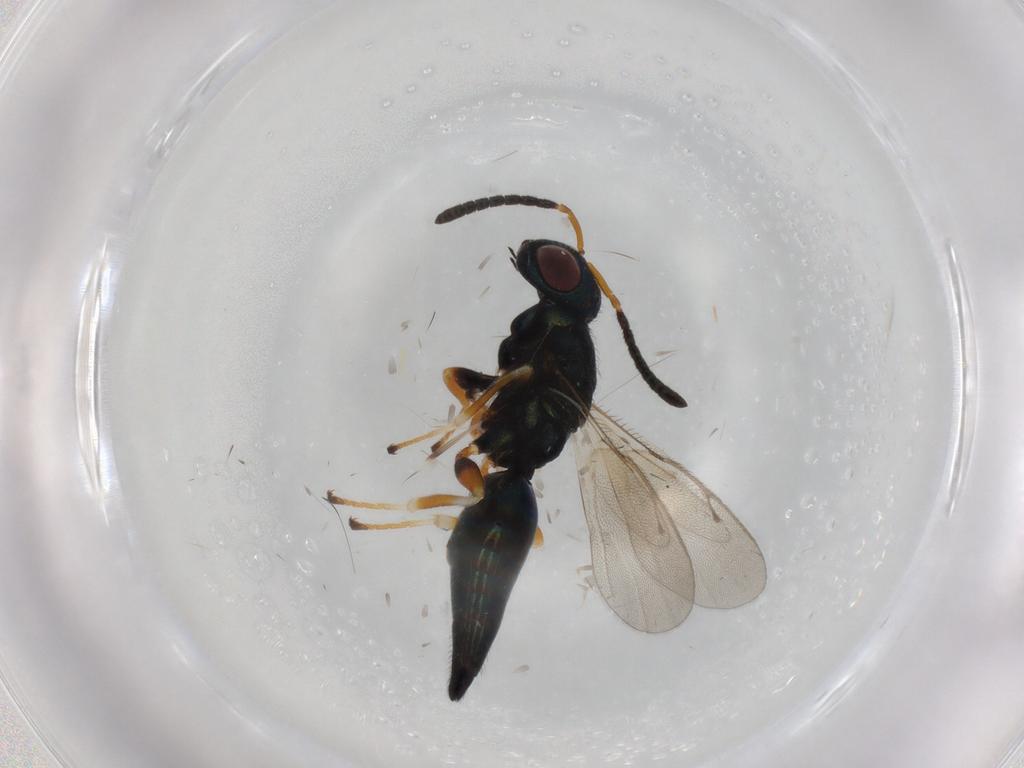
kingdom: Animalia
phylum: Arthropoda
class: Insecta
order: Hymenoptera
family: Pteromalidae
